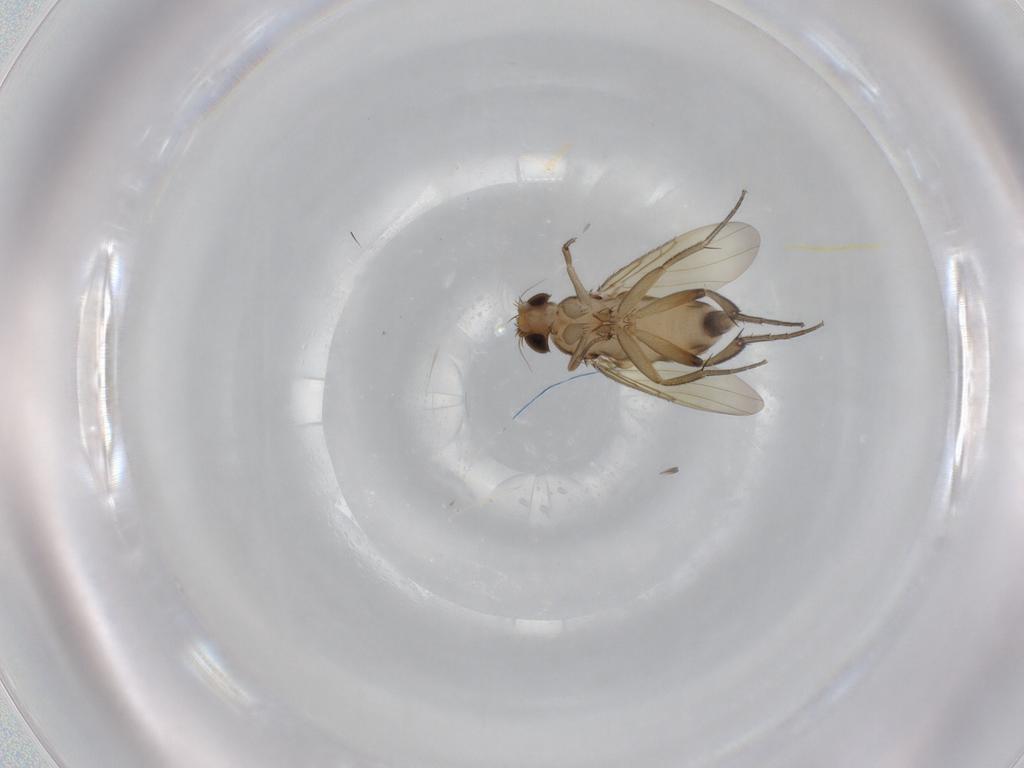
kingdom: Animalia
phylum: Arthropoda
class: Insecta
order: Diptera
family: Phoridae
